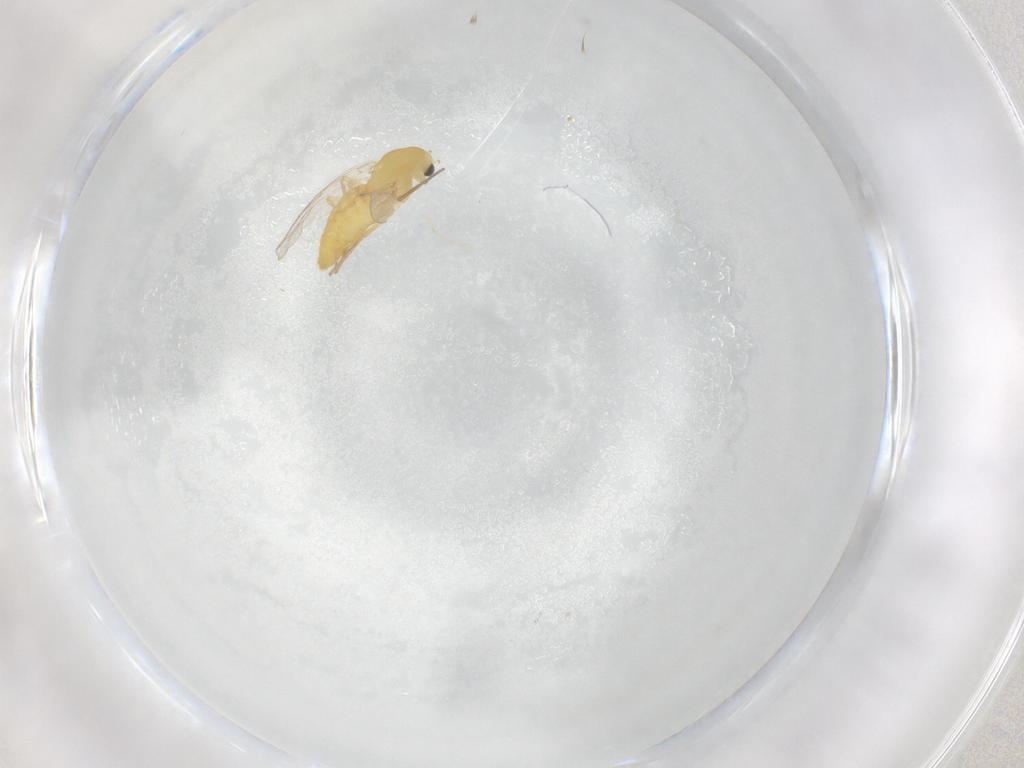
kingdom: Animalia
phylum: Arthropoda
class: Insecta
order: Diptera
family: Chironomidae
